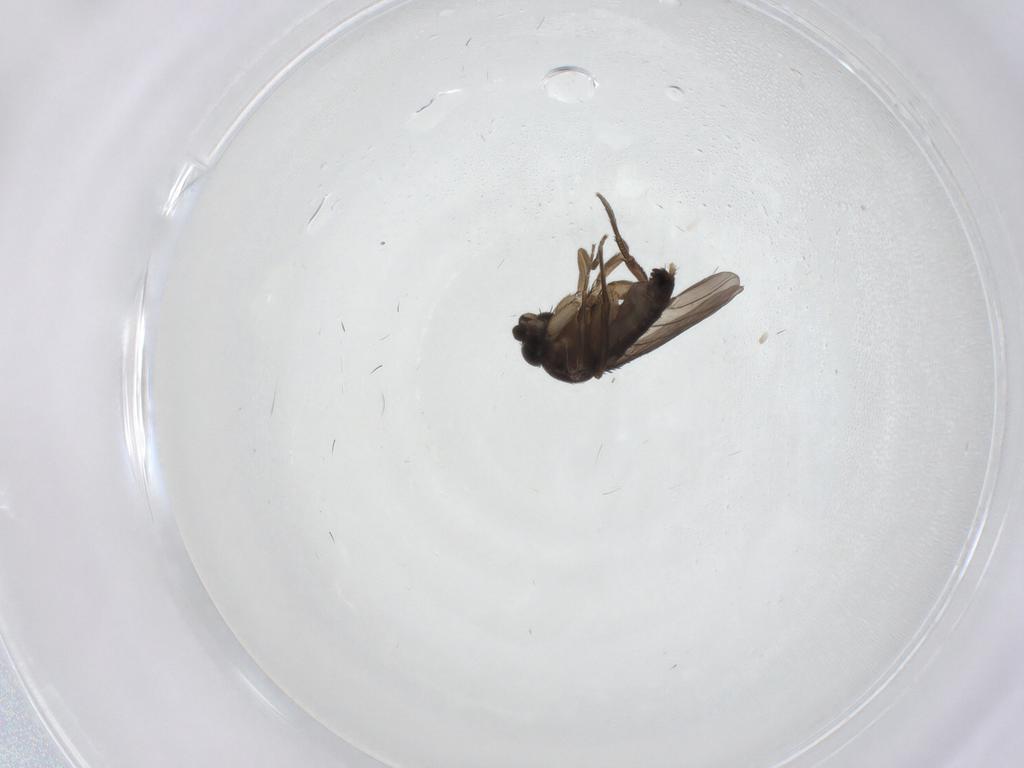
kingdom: Animalia
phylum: Arthropoda
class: Insecta
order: Diptera
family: Phoridae
